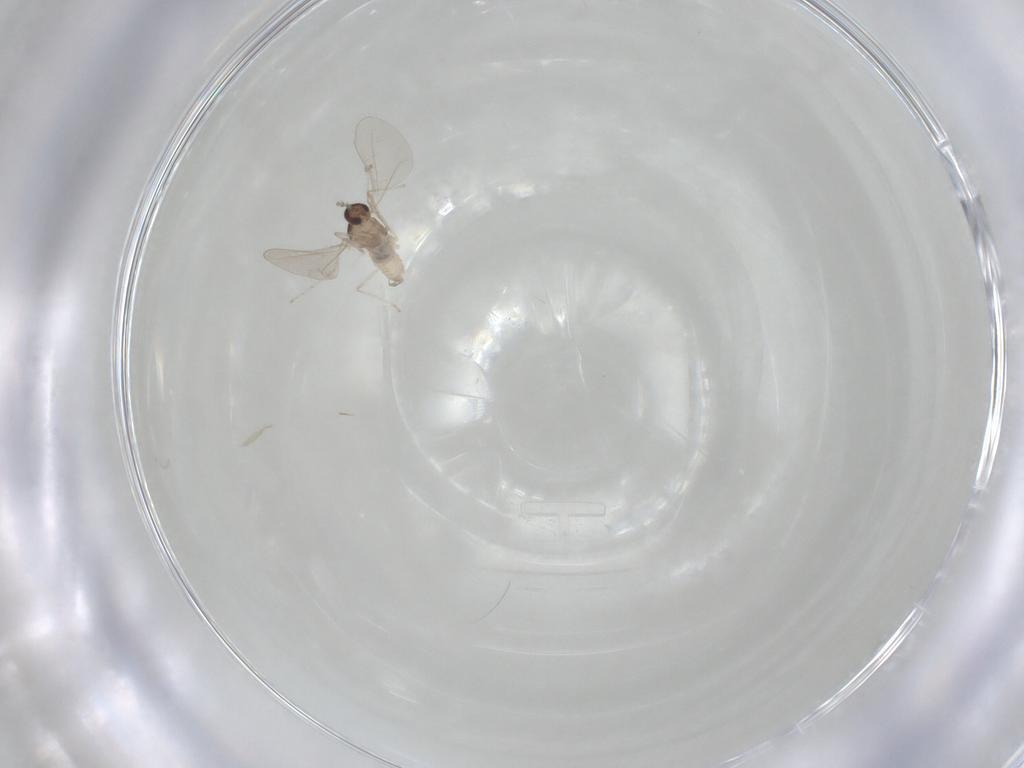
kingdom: Animalia
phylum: Arthropoda
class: Insecta
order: Diptera
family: Cecidomyiidae
